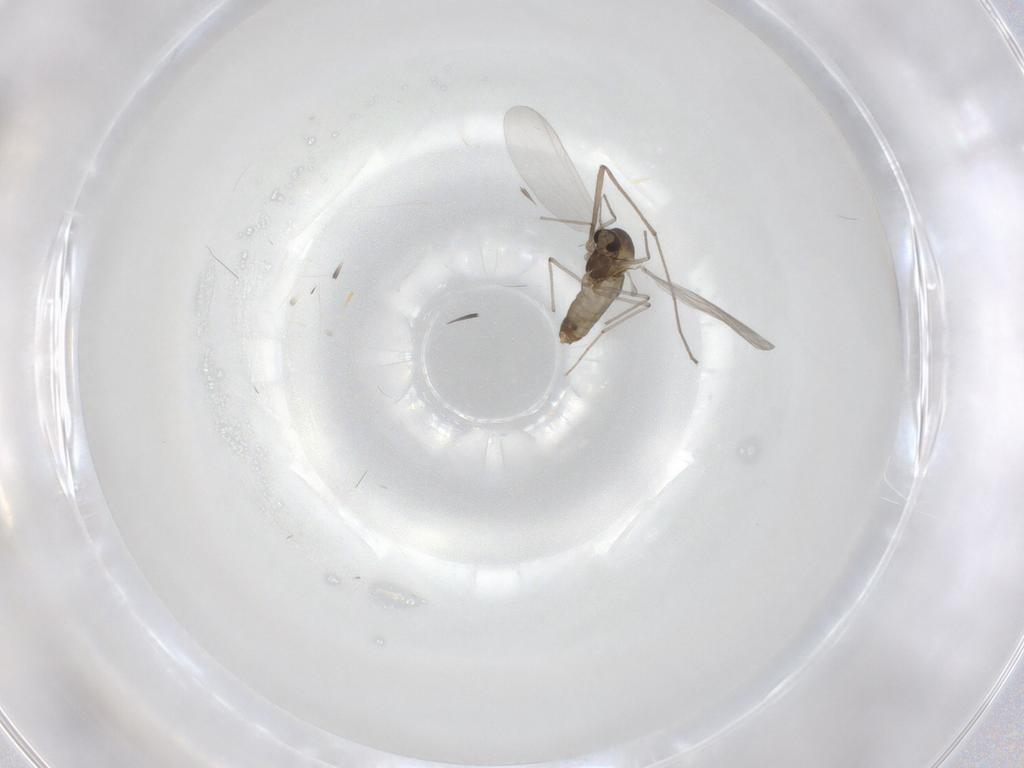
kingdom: Animalia
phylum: Arthropoda
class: Insecta
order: Diptera
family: Chironomidae
